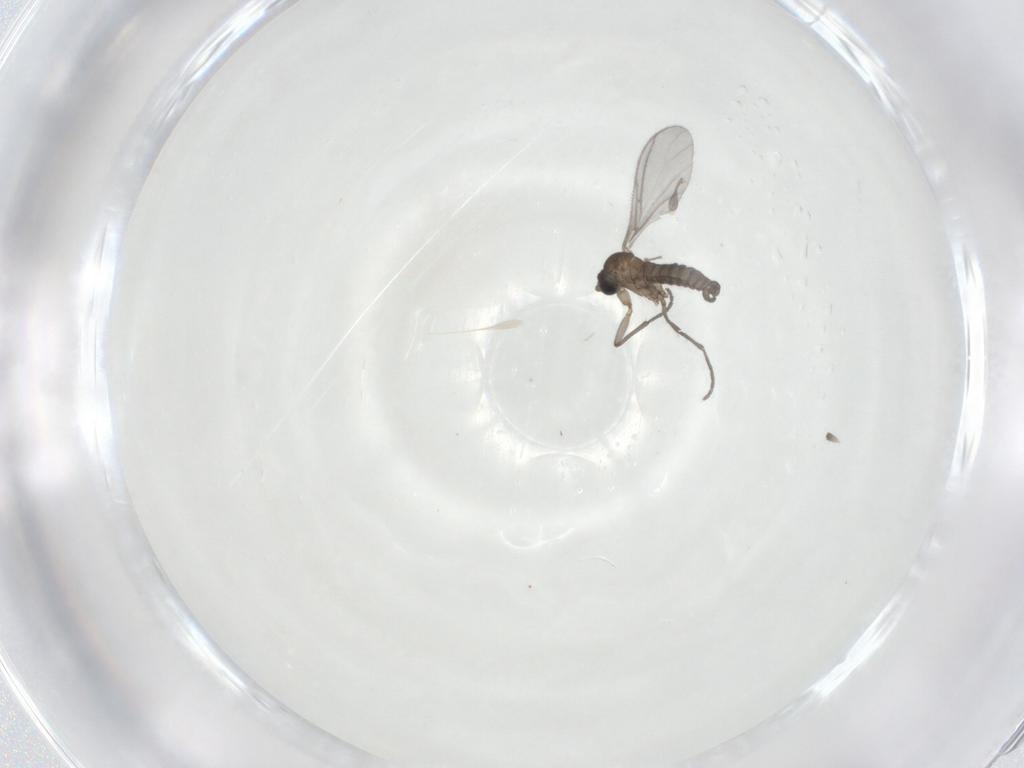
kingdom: Animalia
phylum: Arthropoda
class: Insecta
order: Diptera
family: Sciaridae
